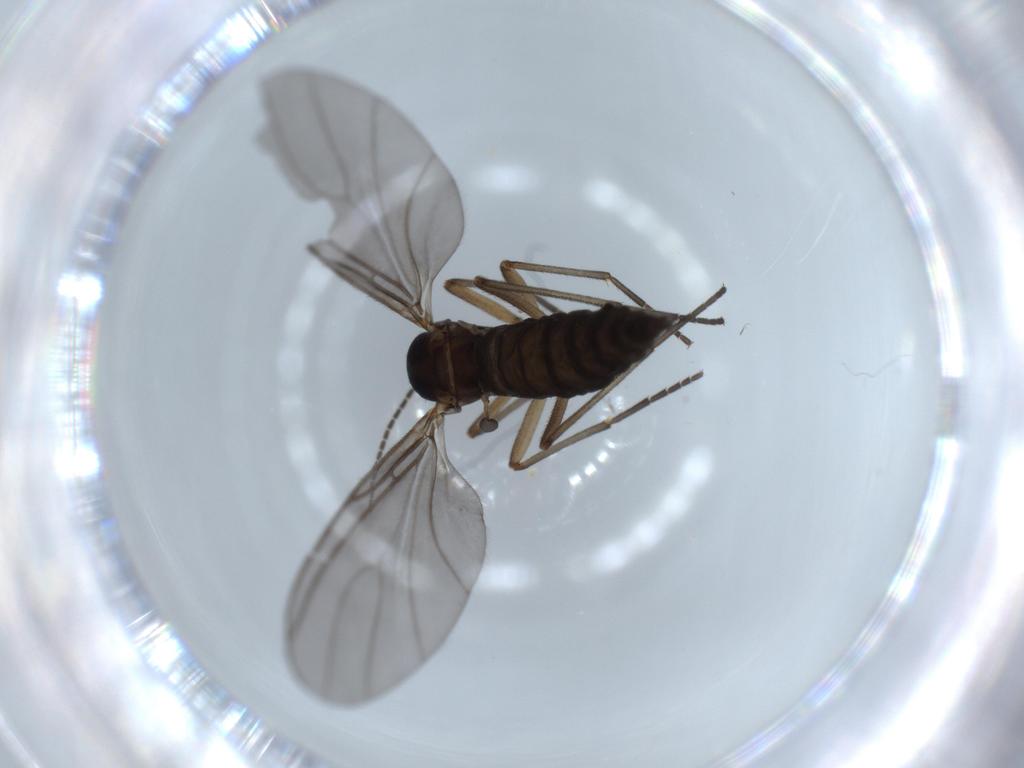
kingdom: Animalia
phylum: Arthropoda
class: Insecta
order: Diptera
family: Sciaridae
